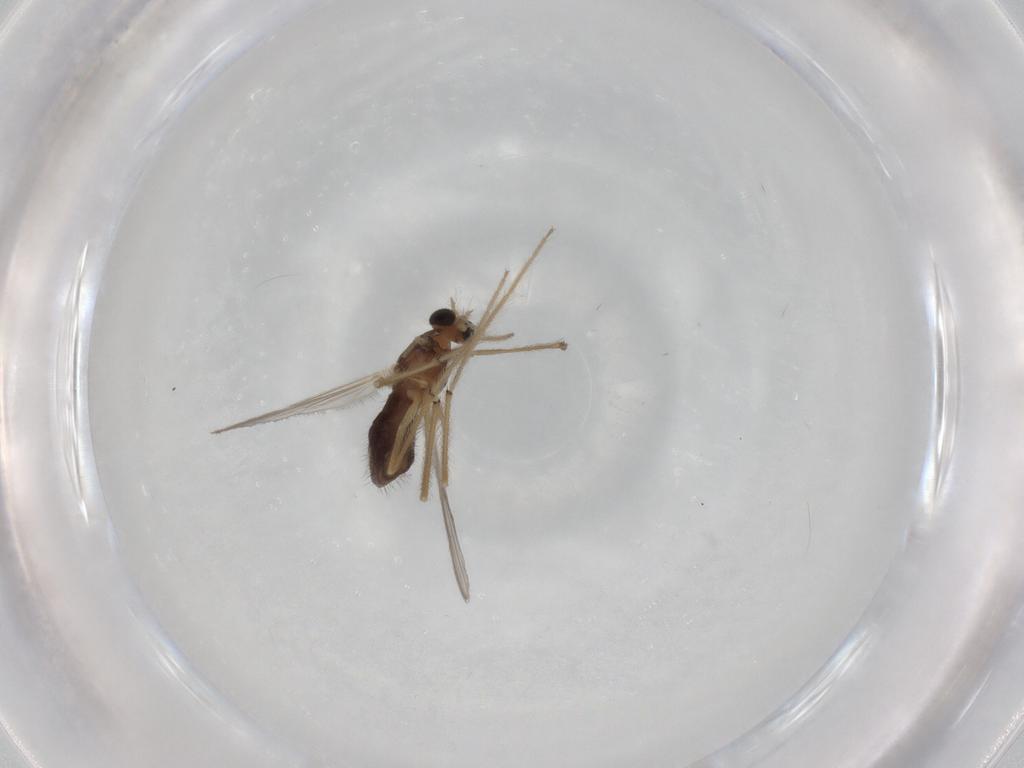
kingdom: Animalia
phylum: Arthropoda
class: Insecta
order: Diptera
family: Chironomidae
